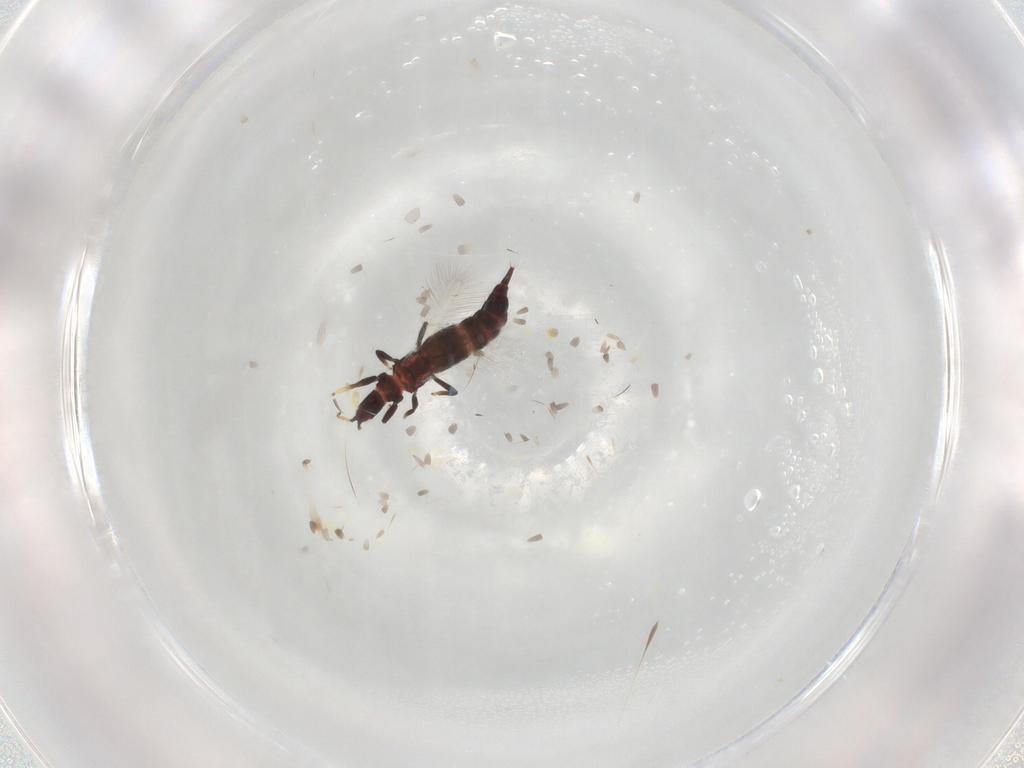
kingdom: Animalia
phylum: Arthropoda
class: Insecta
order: Thysanoptera
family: Phlaeothripidae
